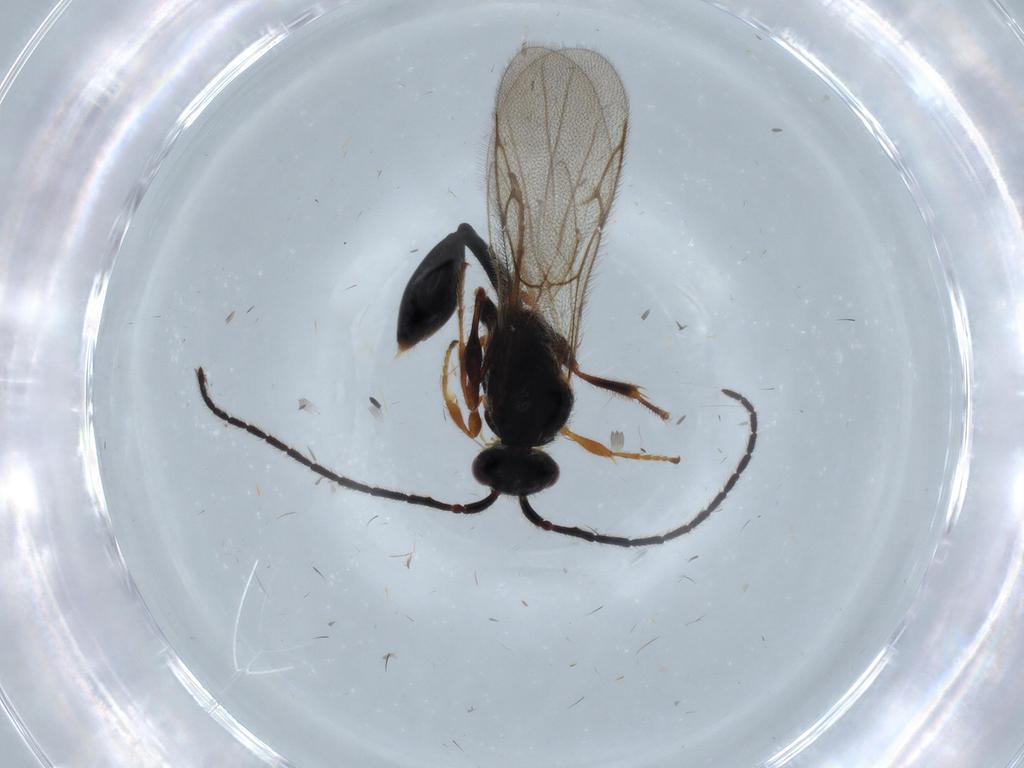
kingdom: Animalia
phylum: Arthropoda
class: Insecta
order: Hymenoptera
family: Diapriidae
